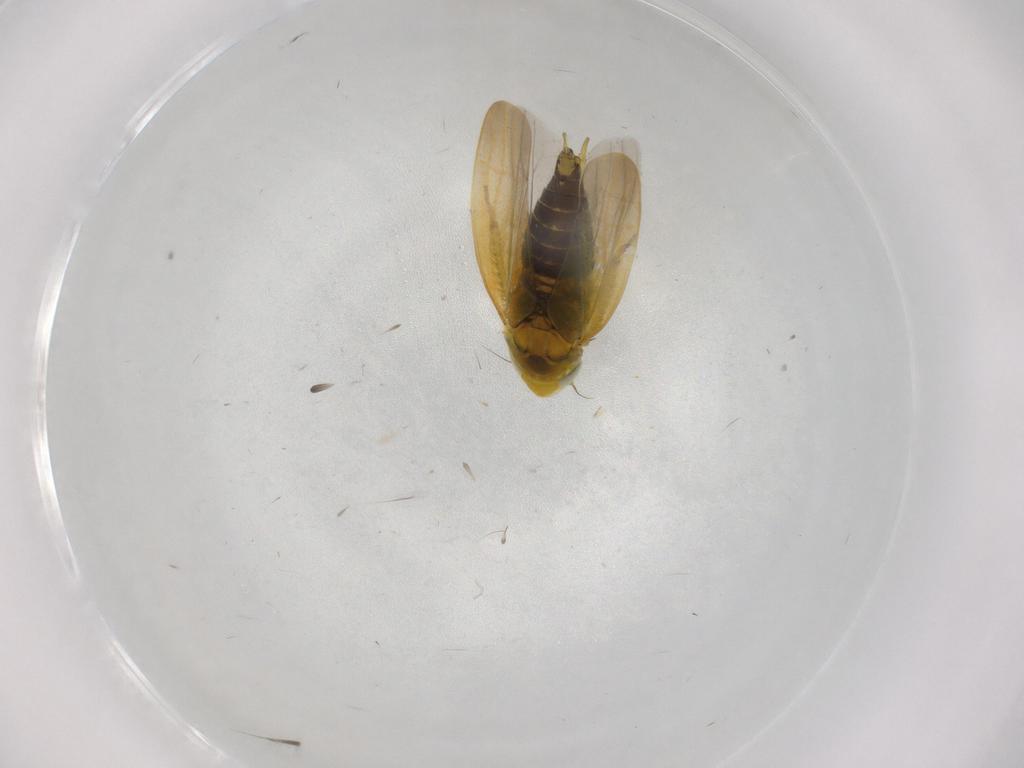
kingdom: Animalia
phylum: Arthropoda
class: Insecta
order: Hemiptera
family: Cicadellidae
